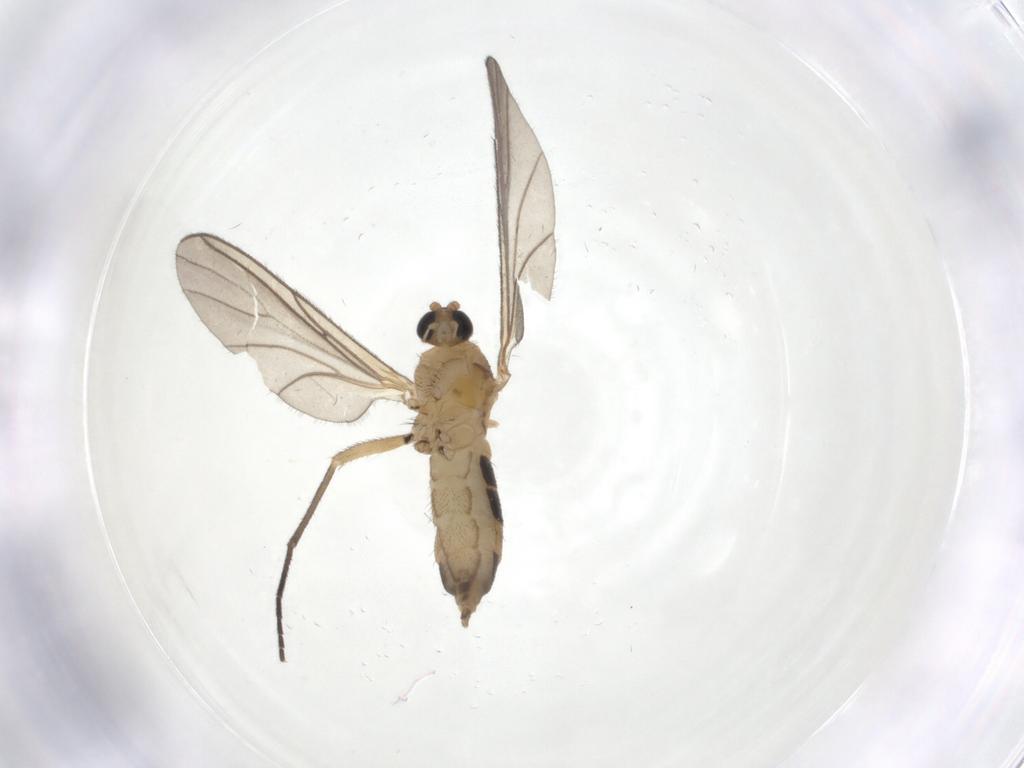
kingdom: Animalia
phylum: Arthropoda
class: Insecta
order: Diptera
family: Sciaridae
